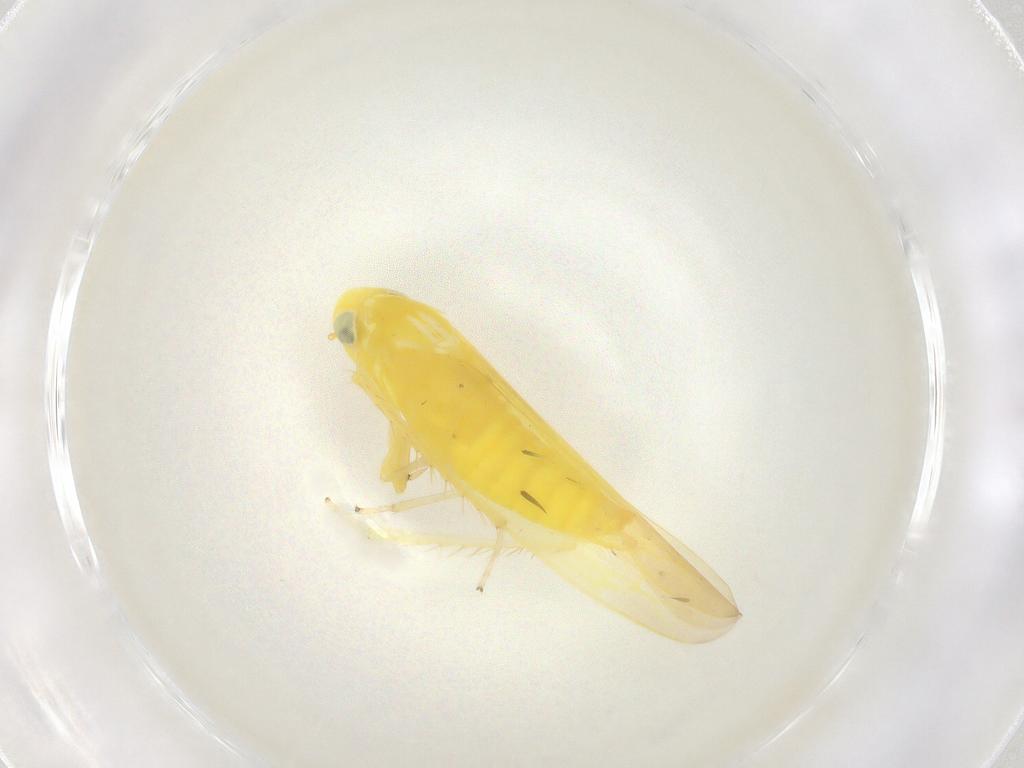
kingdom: Animalia
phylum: Arthropoda
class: Insecta
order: Hemiptera
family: Cicadellidae
